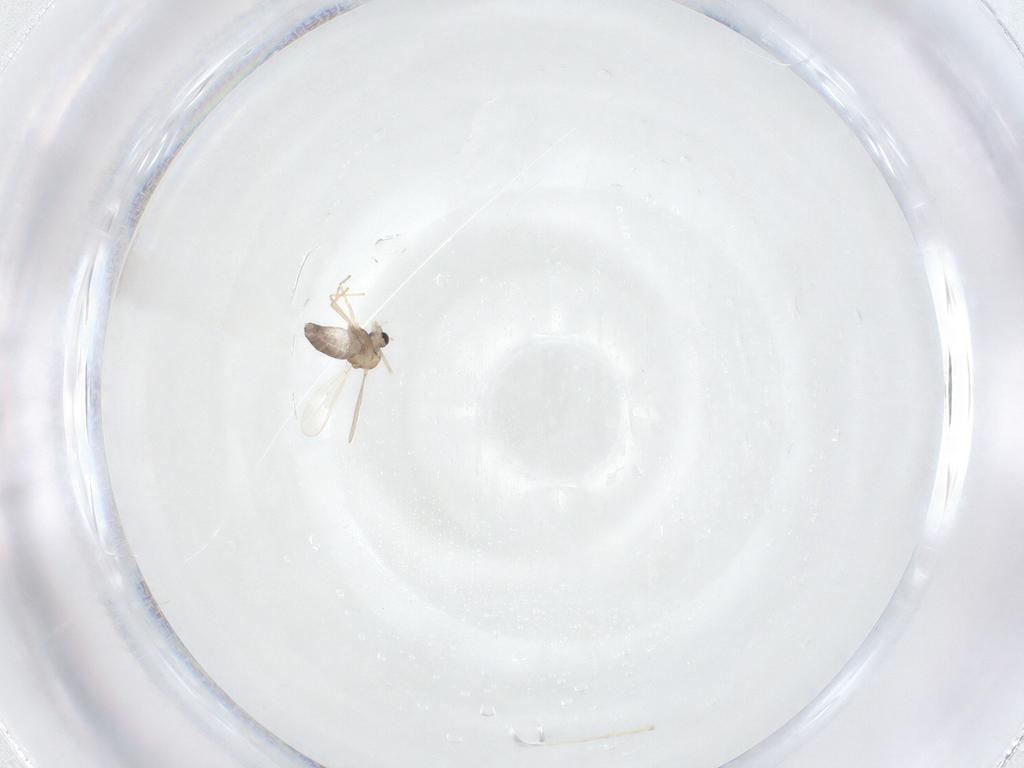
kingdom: Animalia
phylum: Arthropoda
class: Insecta
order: Diptera
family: Chironomidae
